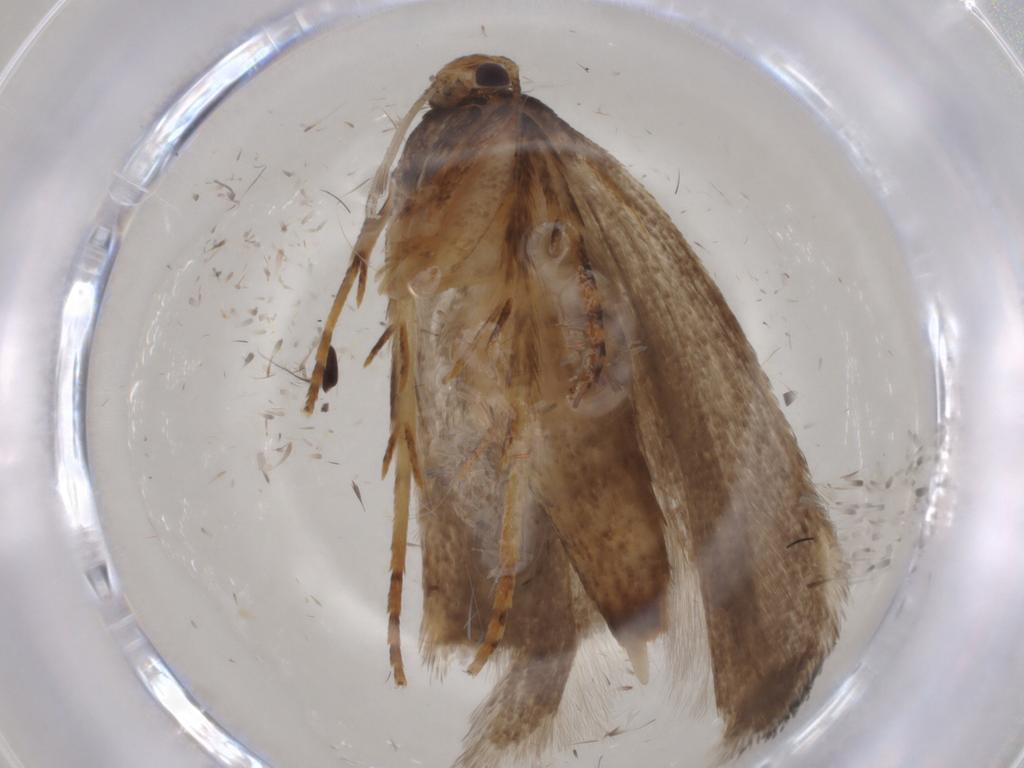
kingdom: Animalia
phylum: Arthropoda
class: Insecta
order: Lepidoptera
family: Gelechiidae
